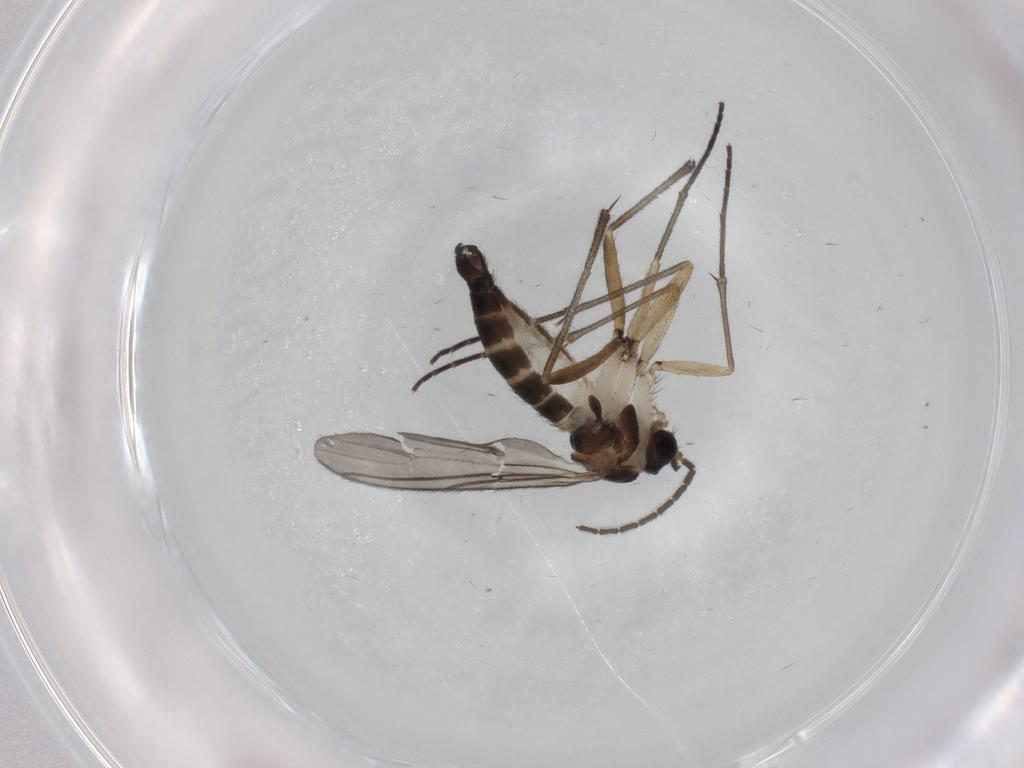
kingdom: Animalia
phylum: Arthropoda
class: Insecta
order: Diptera
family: Sciaridae
